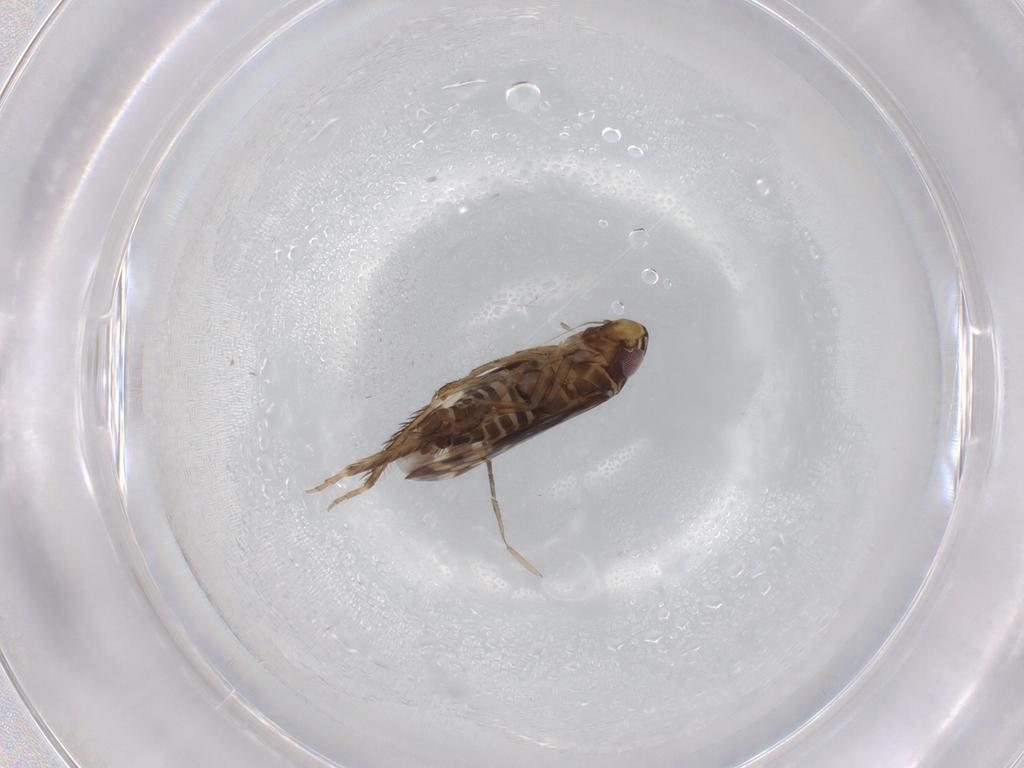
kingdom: Animalia
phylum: Arthropoda
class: Insecta
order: Hemiptera
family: Cicadellidae
